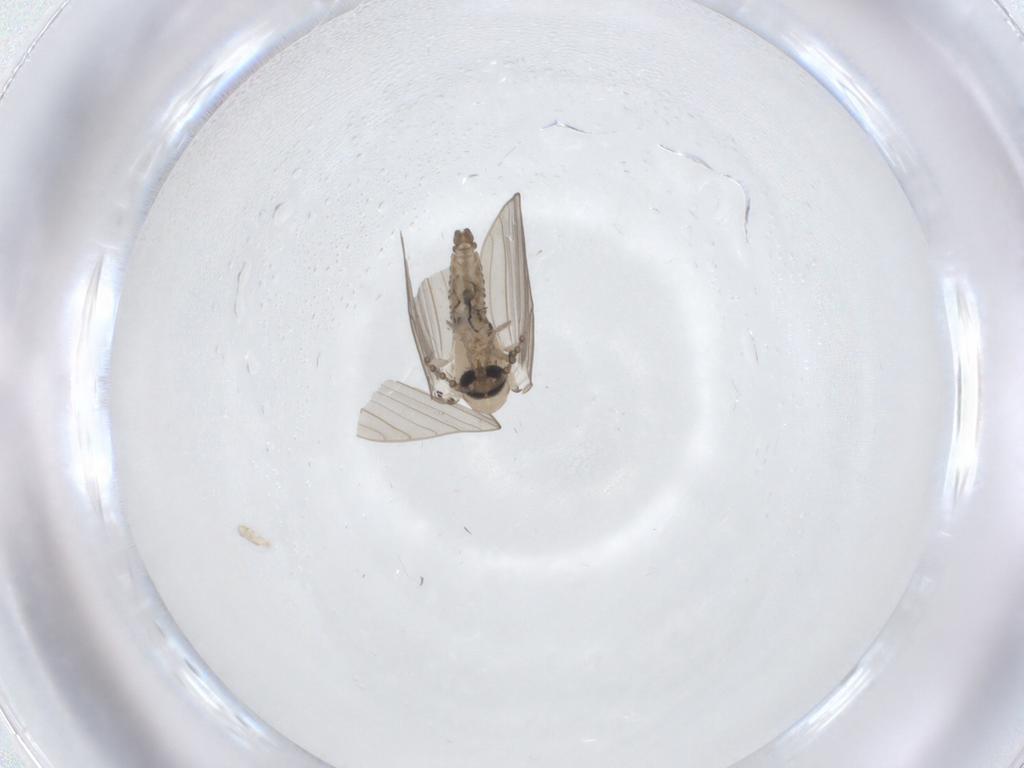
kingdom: Animalia
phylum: Arthropoda
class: Insecta
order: Diptera
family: Psychodidae
